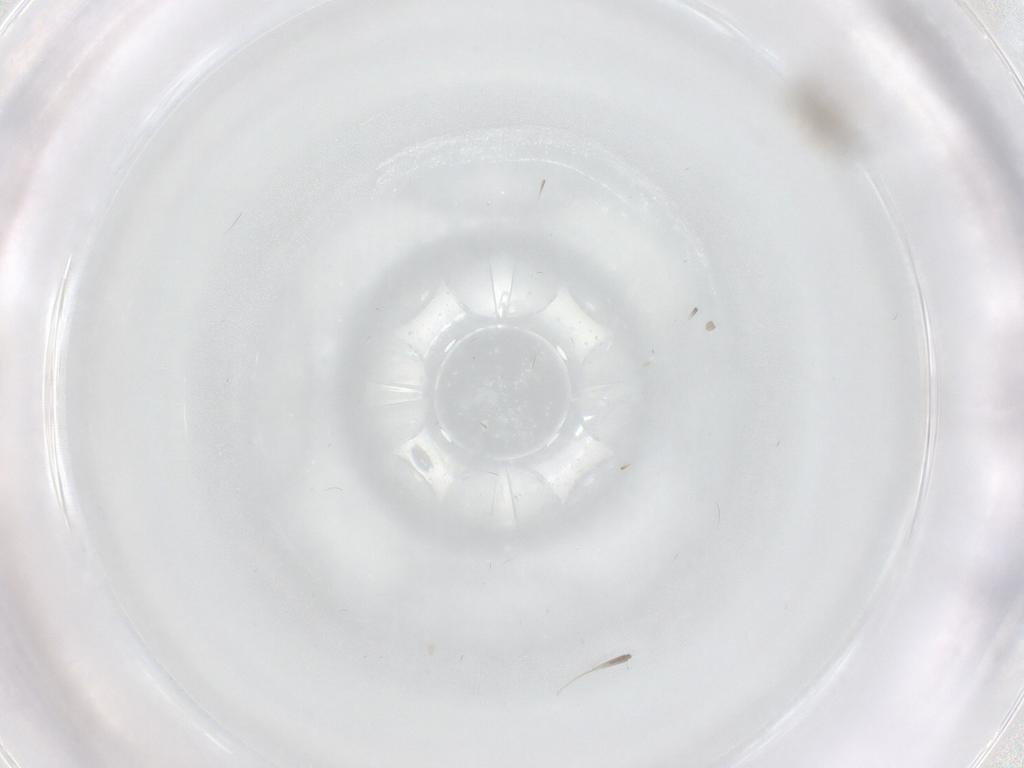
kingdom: Animalia
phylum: Arthropoda
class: Insecta
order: Diptera
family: Cecidomyiidae
